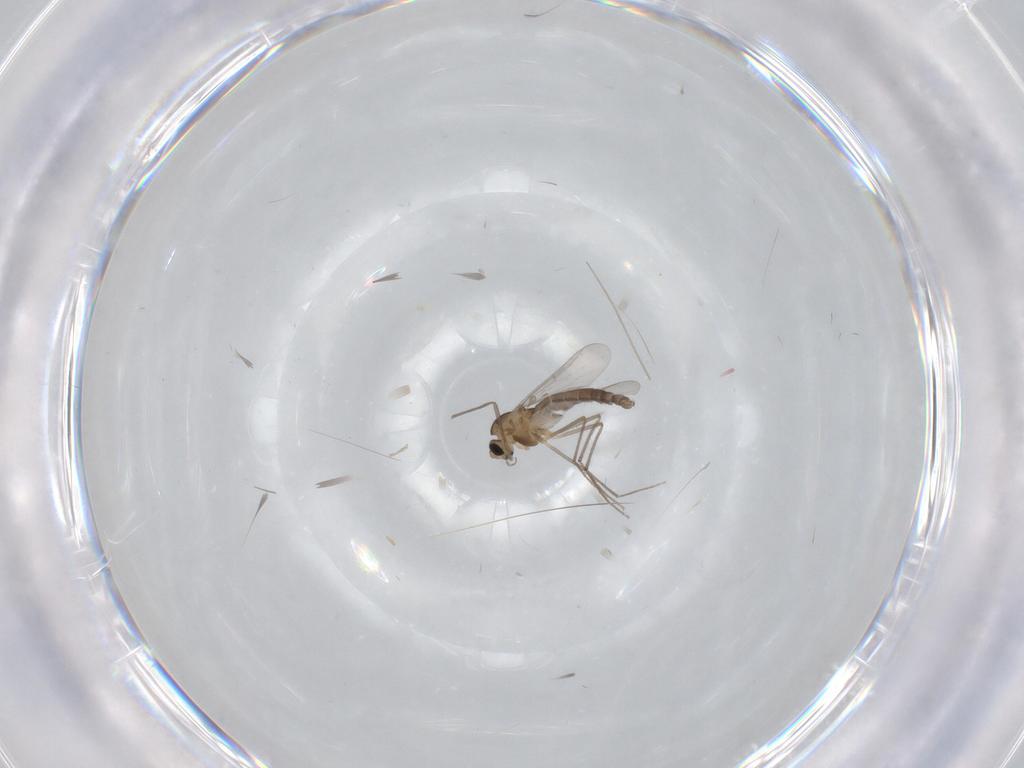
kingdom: Animalia
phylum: Arthropoda
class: Insecta
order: Diptera
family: Chironomidae
